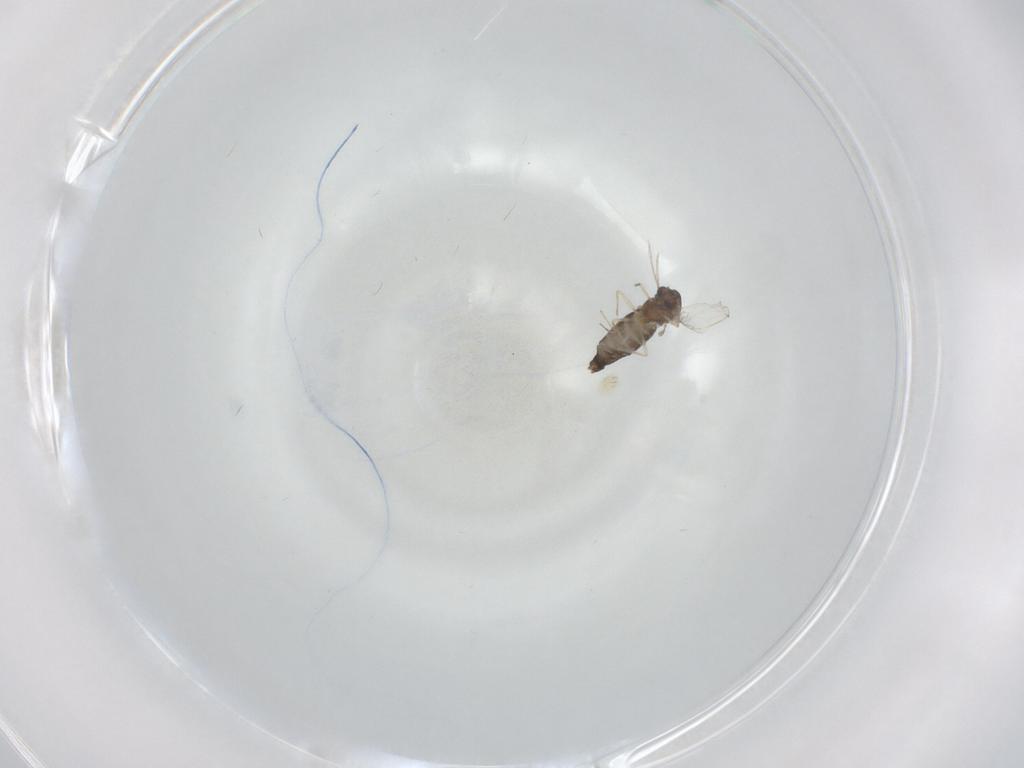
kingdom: Animalia
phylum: Arthropoda
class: Insecta
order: Diptera
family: Chironomidae
